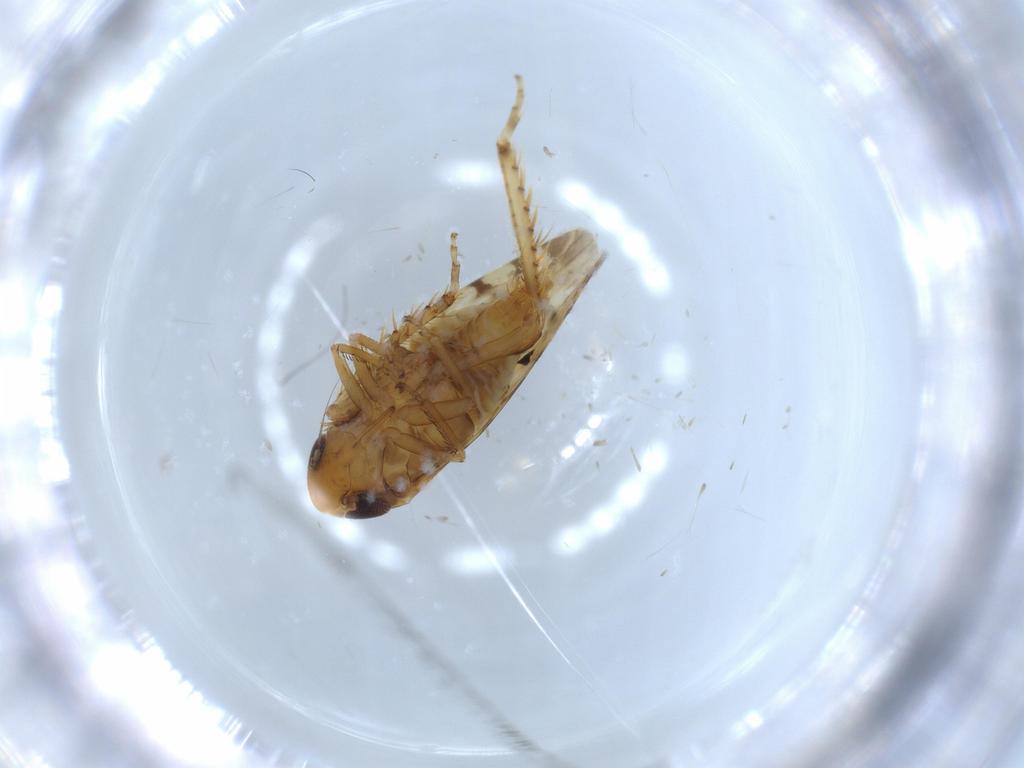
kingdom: Animalia
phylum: Arthropoda
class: Insecta
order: Hemiptera
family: Cicadellidae
